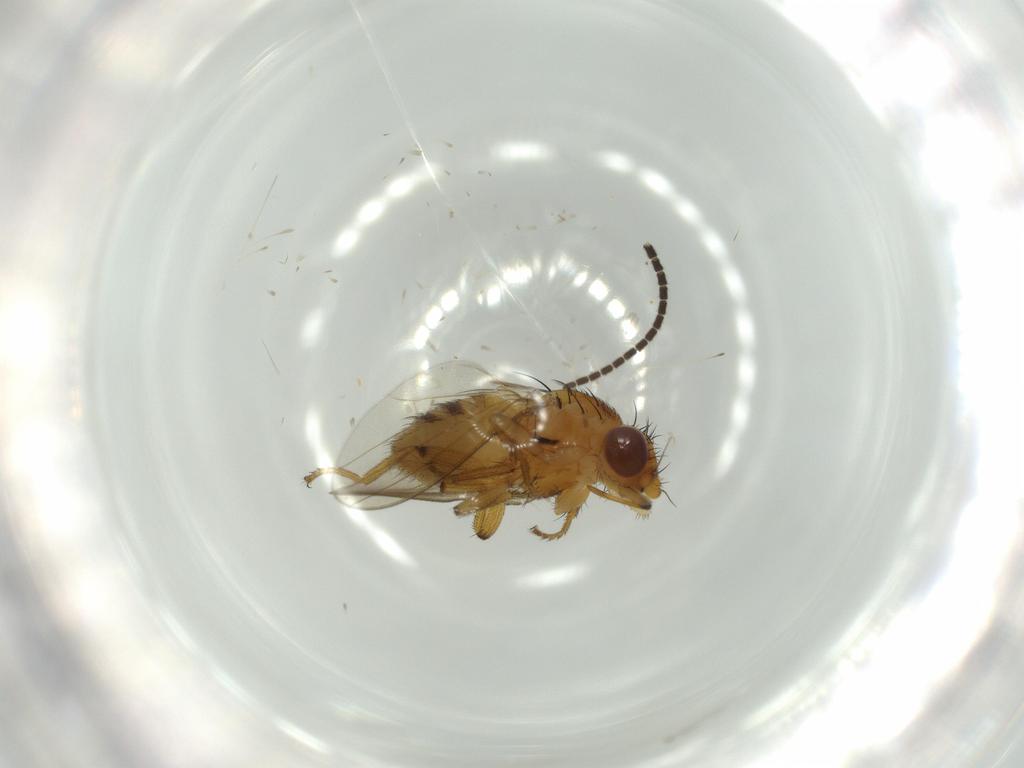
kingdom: Animalia
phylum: Arthropoda
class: Insecta
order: Diptera
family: Sciaridae
